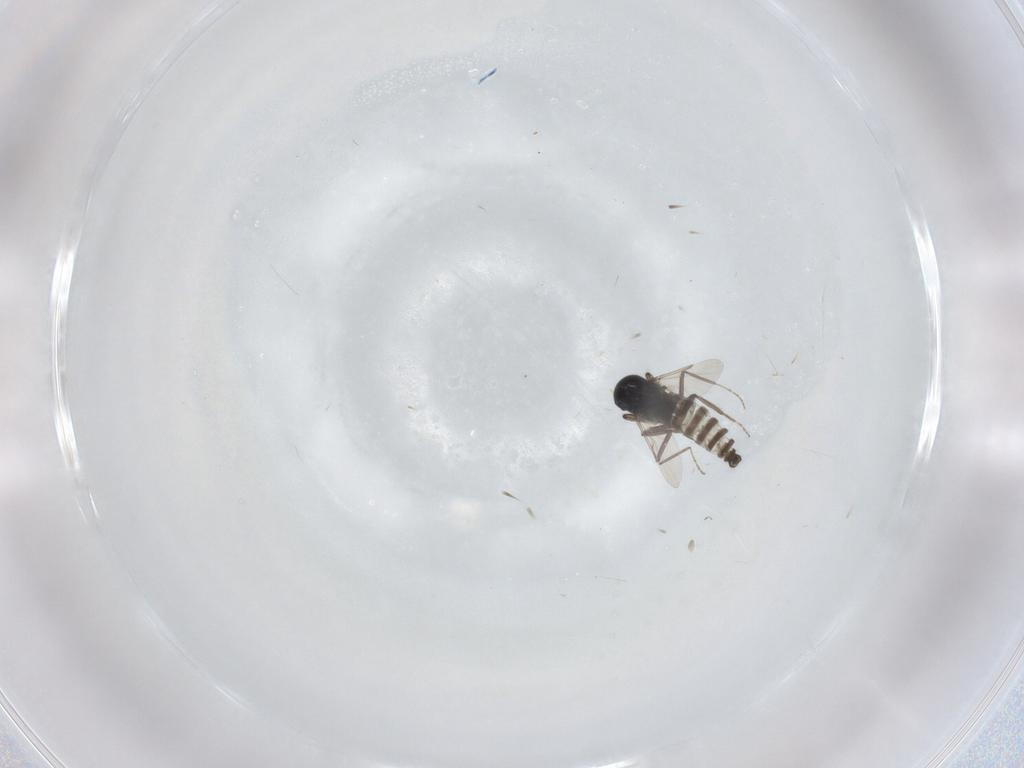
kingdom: Animalia
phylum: Arthropoda
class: Insecta
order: Diptera
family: Ceratopogonidae
